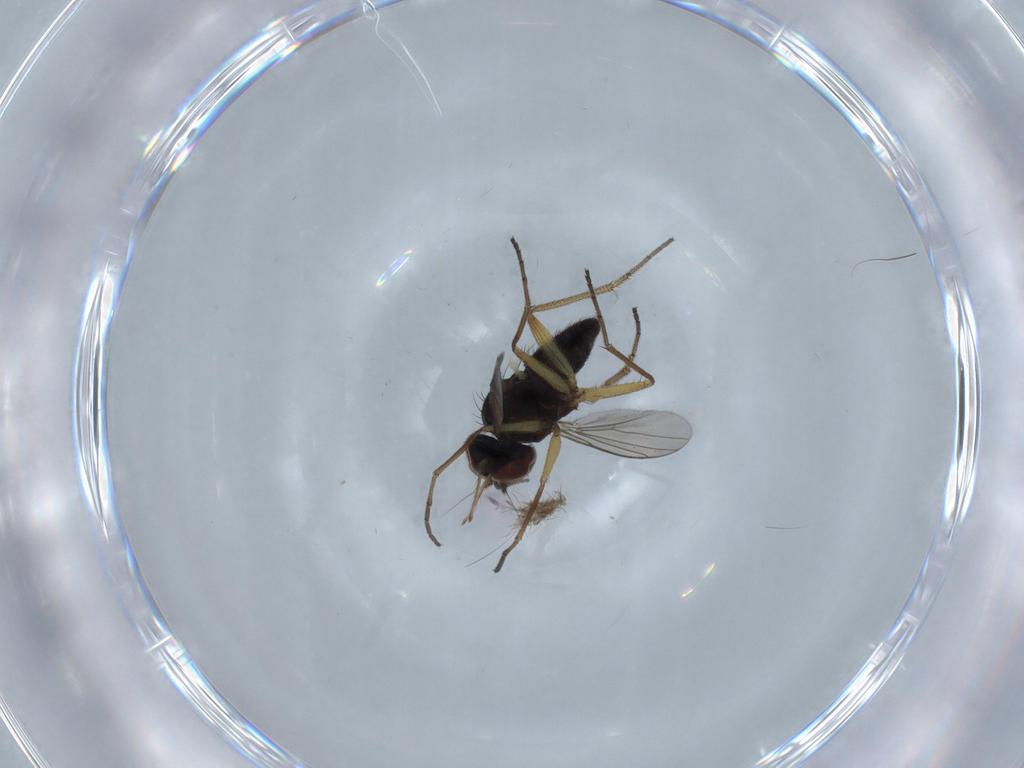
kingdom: Animalia
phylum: Arthropoda
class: Insecta
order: Diptera
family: Dolichopodidae
